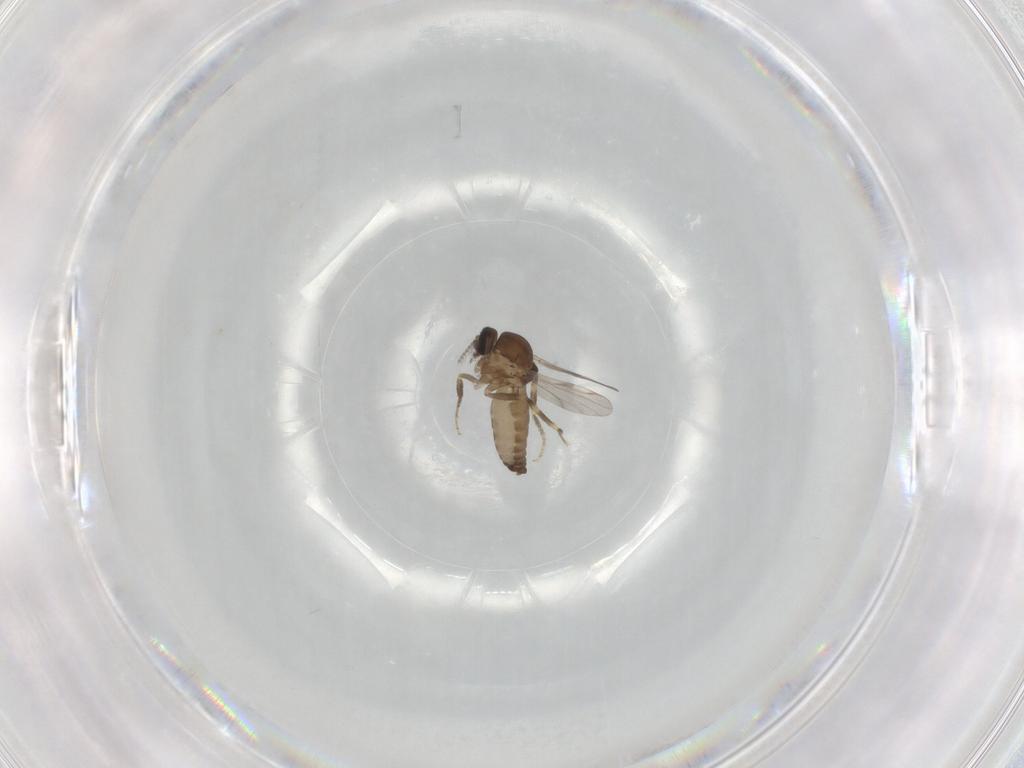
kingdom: Animalia
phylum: Arthropoda
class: Insecta
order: Diptera
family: Ceratopogonidae
